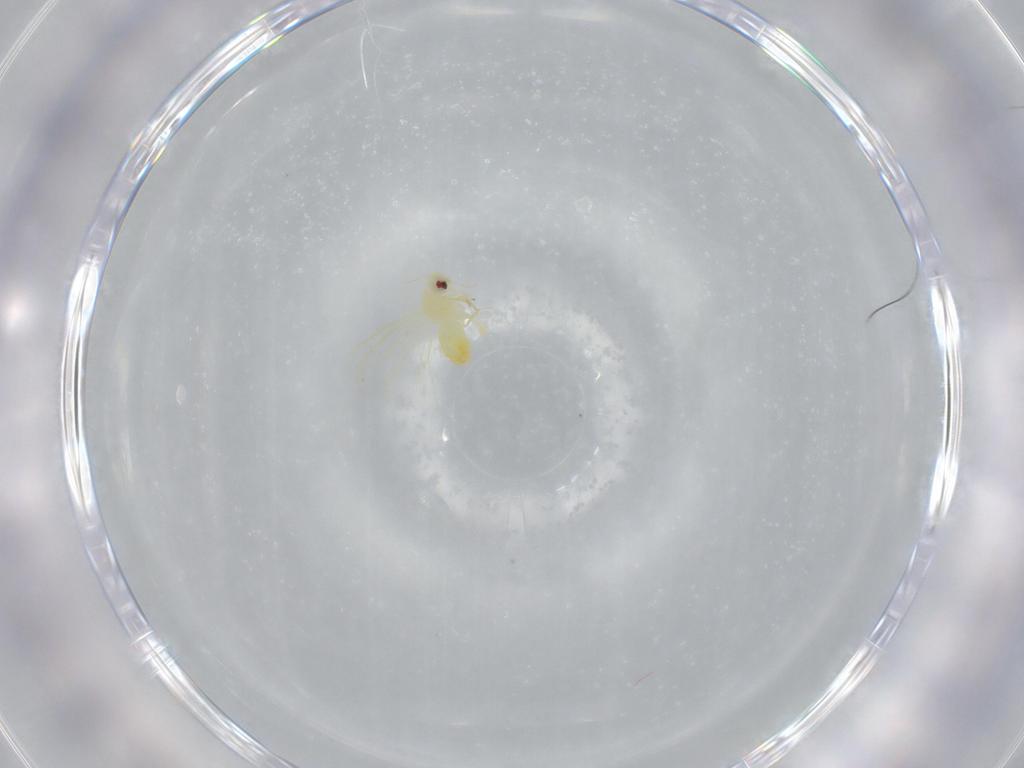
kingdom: Animalia
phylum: Arthropoda
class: Insecta
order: Hemiptera
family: Aleyrodidae
